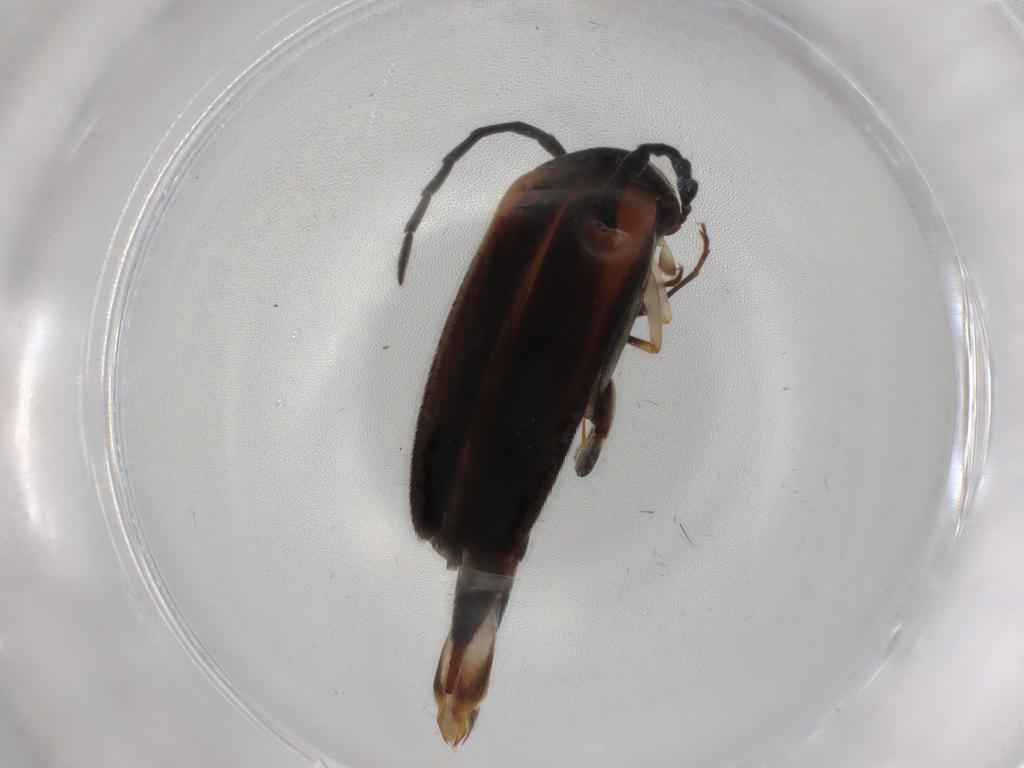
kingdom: Animalia
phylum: Arthropoda
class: Insecta
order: Coleoptera
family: Mordellidae
